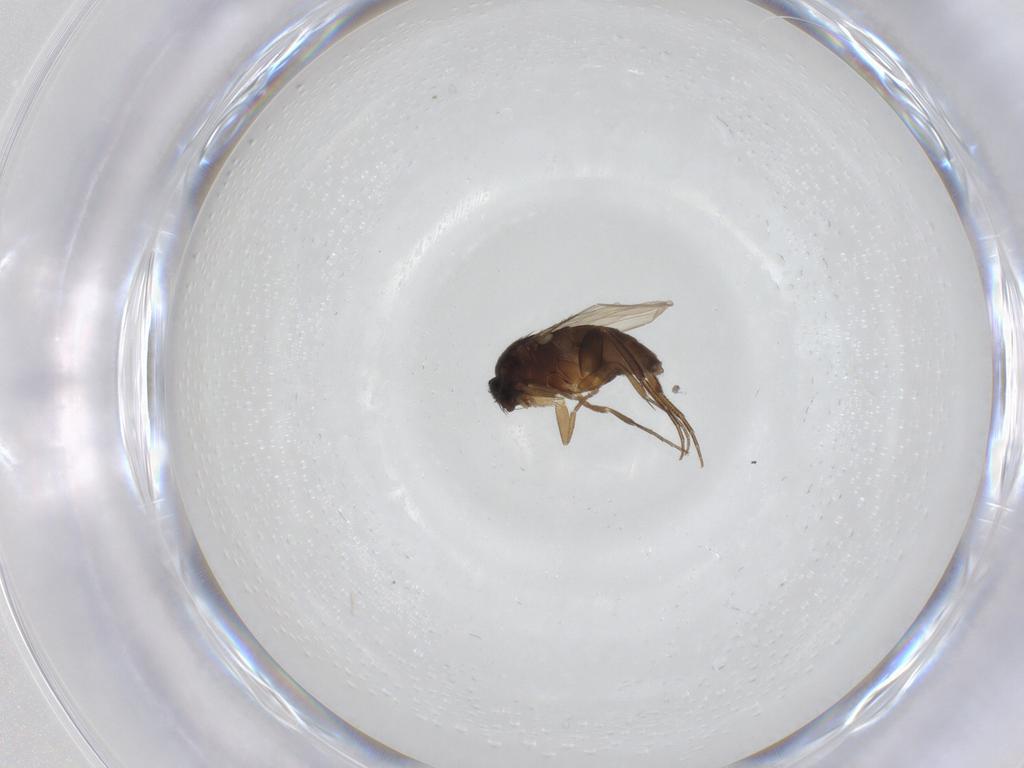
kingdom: Animalia
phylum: Arthropoda
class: Insecta
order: Diptera
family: Phoridae
